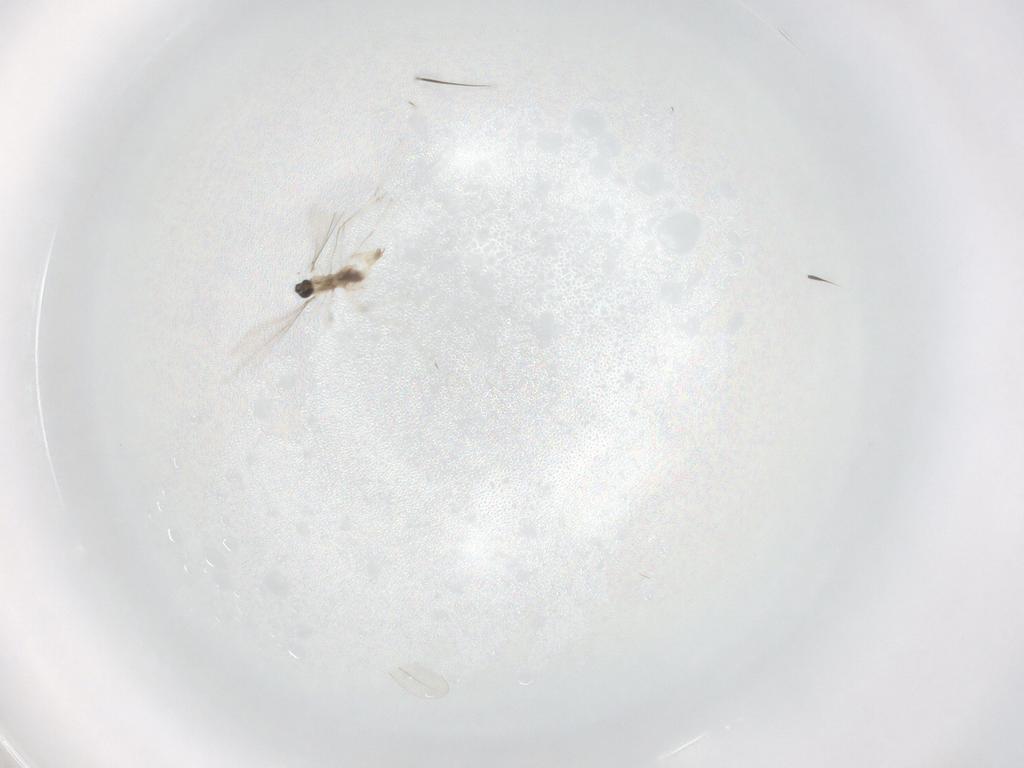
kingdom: Animalia
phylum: Arthropoda
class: Insecta
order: Diptera
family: Cecidomyiidae
